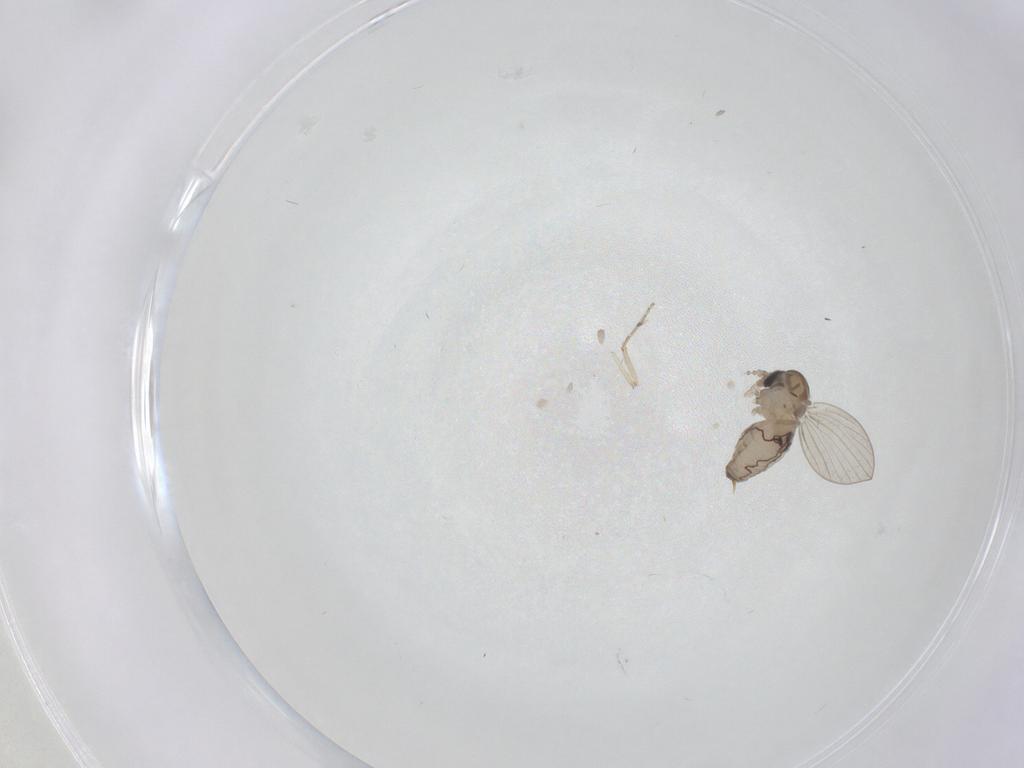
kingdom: Animalia
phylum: Arthropoda
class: Insecta
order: Diptera
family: Psychodidae
